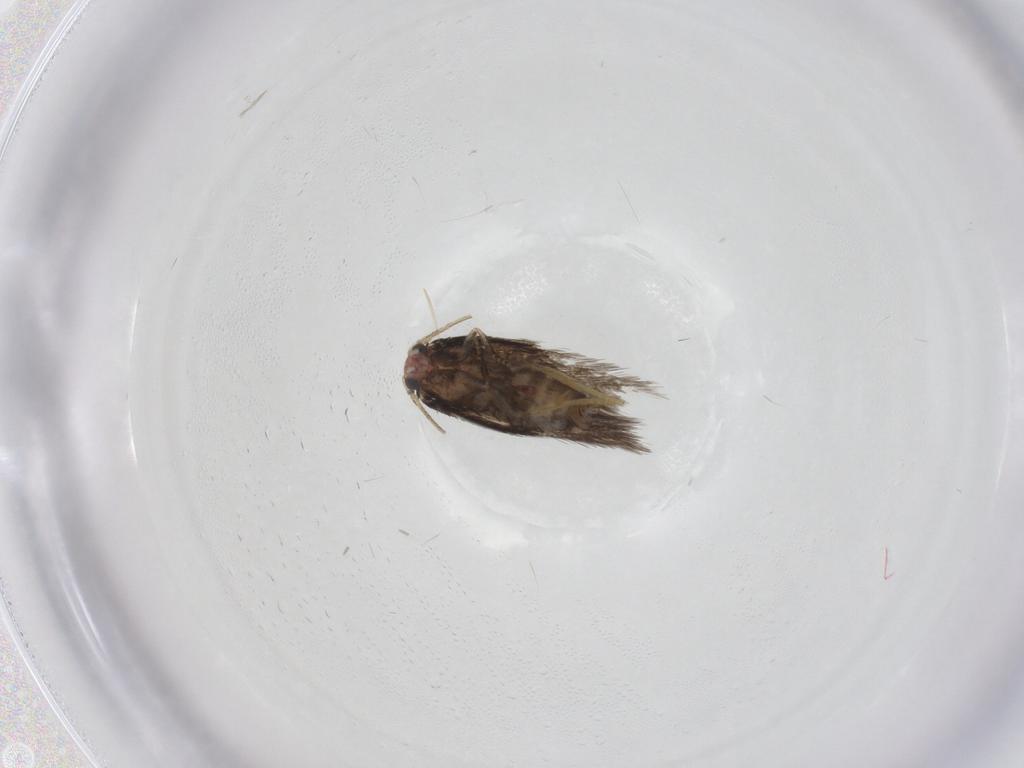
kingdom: Animalia
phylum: Arthropoda
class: Insecta
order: Lepidoptera
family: Nepticulidae
